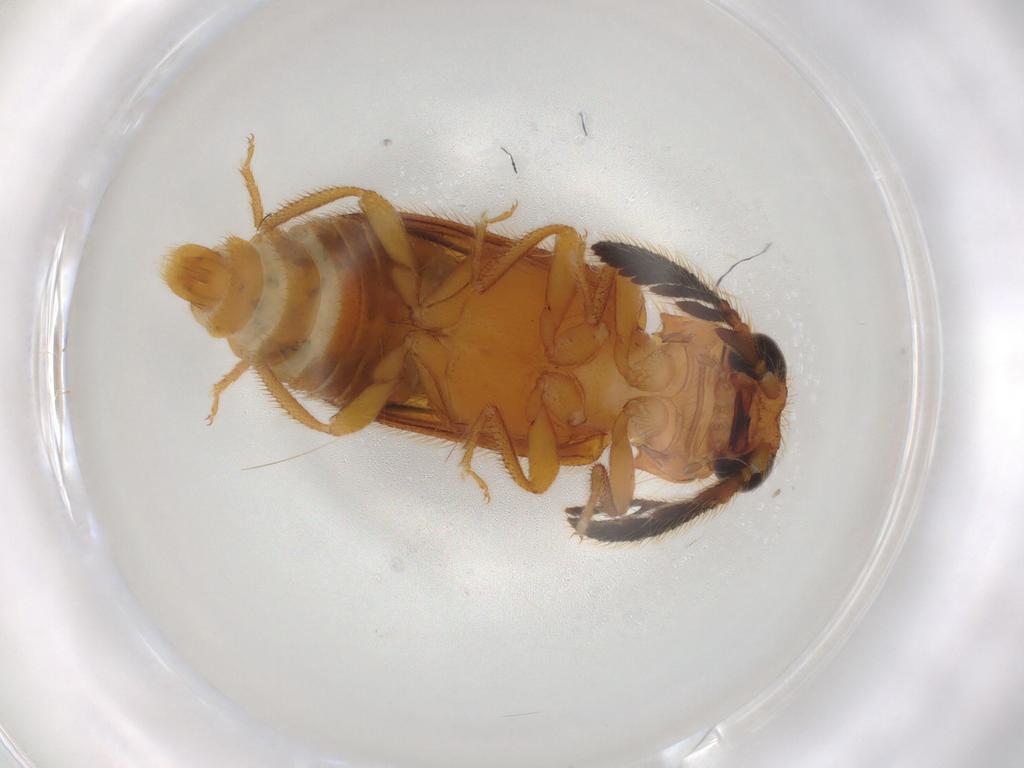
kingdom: Animalia
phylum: Arthropoda
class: Insecta
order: Coleoptera
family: Elateridae
